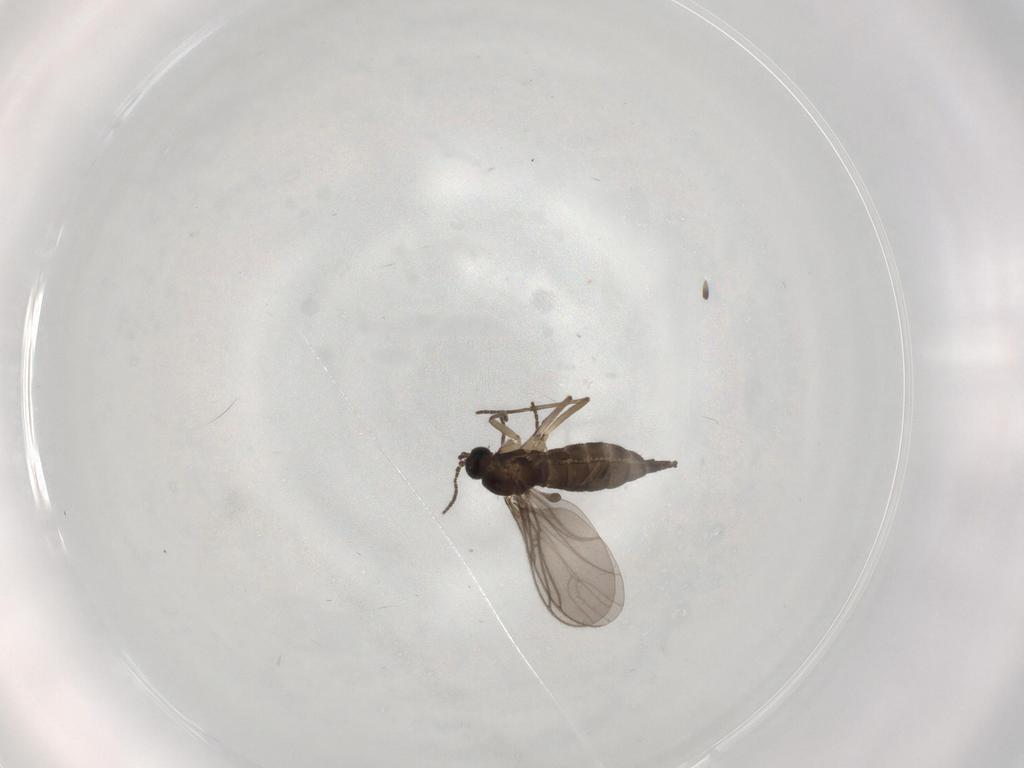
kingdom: Animalia
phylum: Arthropoda
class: Insecta
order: Diptera
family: Sciaridae
